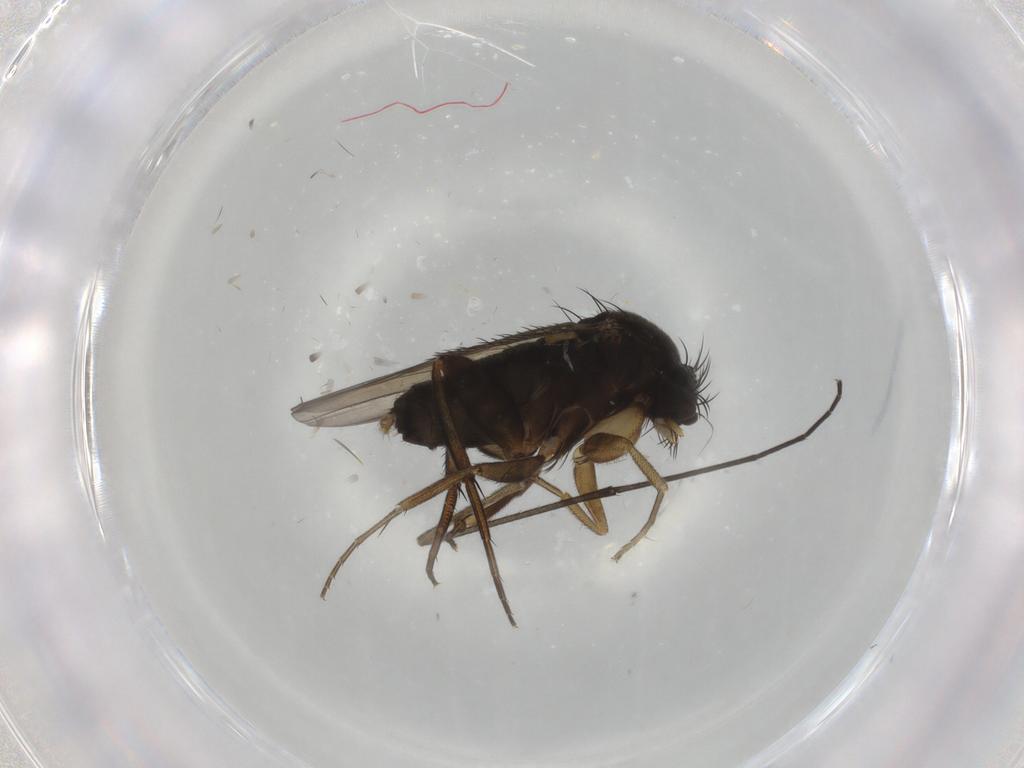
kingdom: Animalia
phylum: Arthropoda
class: Insecta
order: Diptera
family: Phoridae
